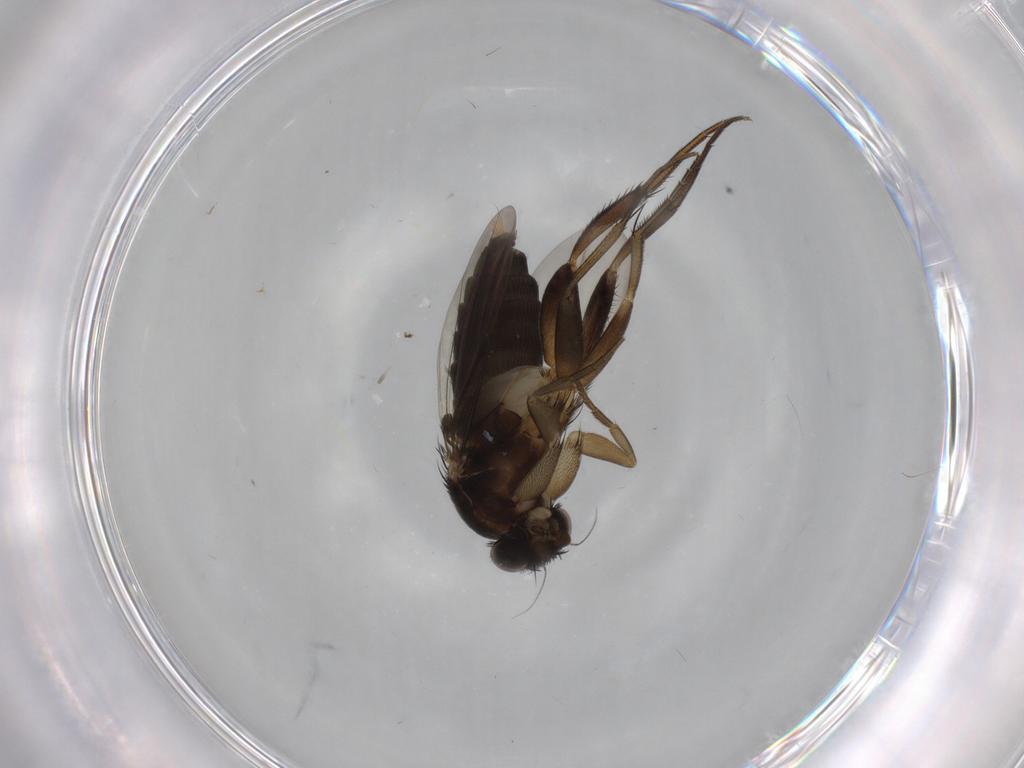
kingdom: Animalia
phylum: Arthropoda
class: Insecta
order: Diptera
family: Phoridae
